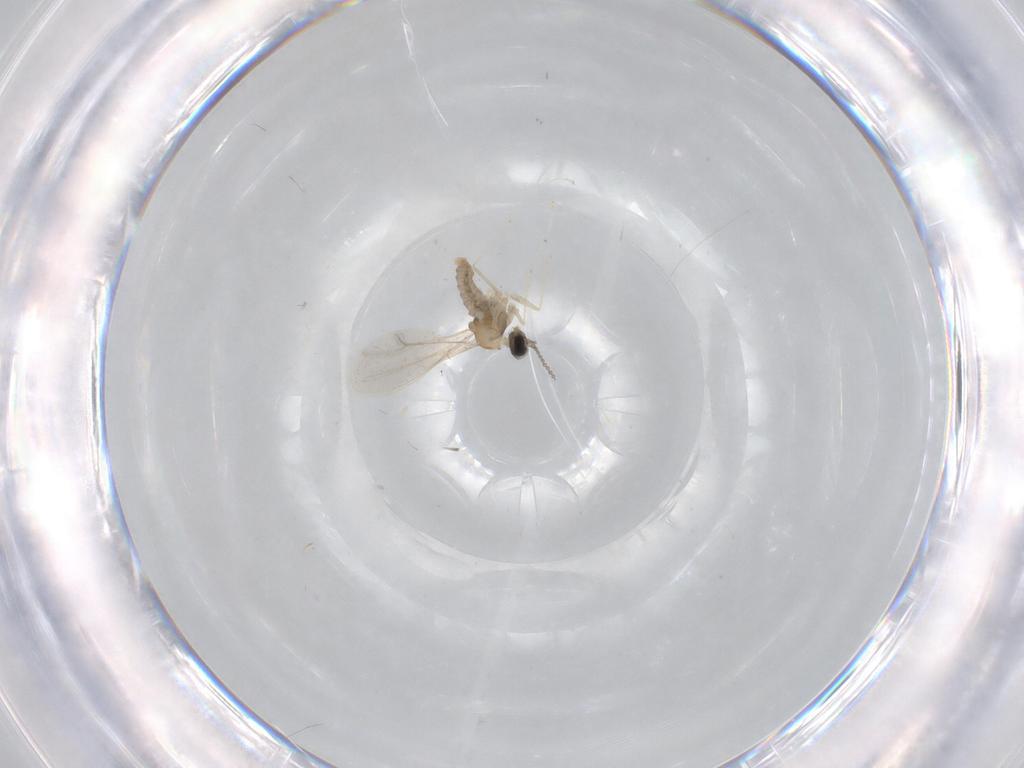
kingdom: Animalia
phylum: Arthropoda
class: Insecta
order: Diptera
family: Cecidomyiidae
